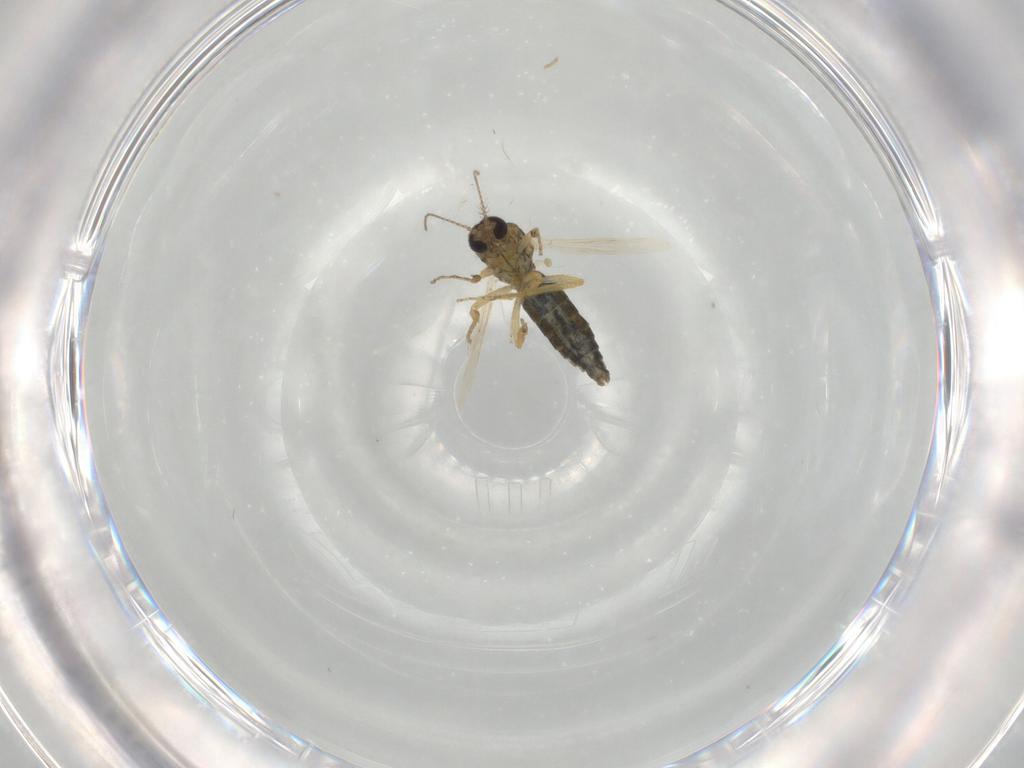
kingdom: Animalia
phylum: Arthropoda
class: Insecta
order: Diptera
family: Ceratopogonidae
